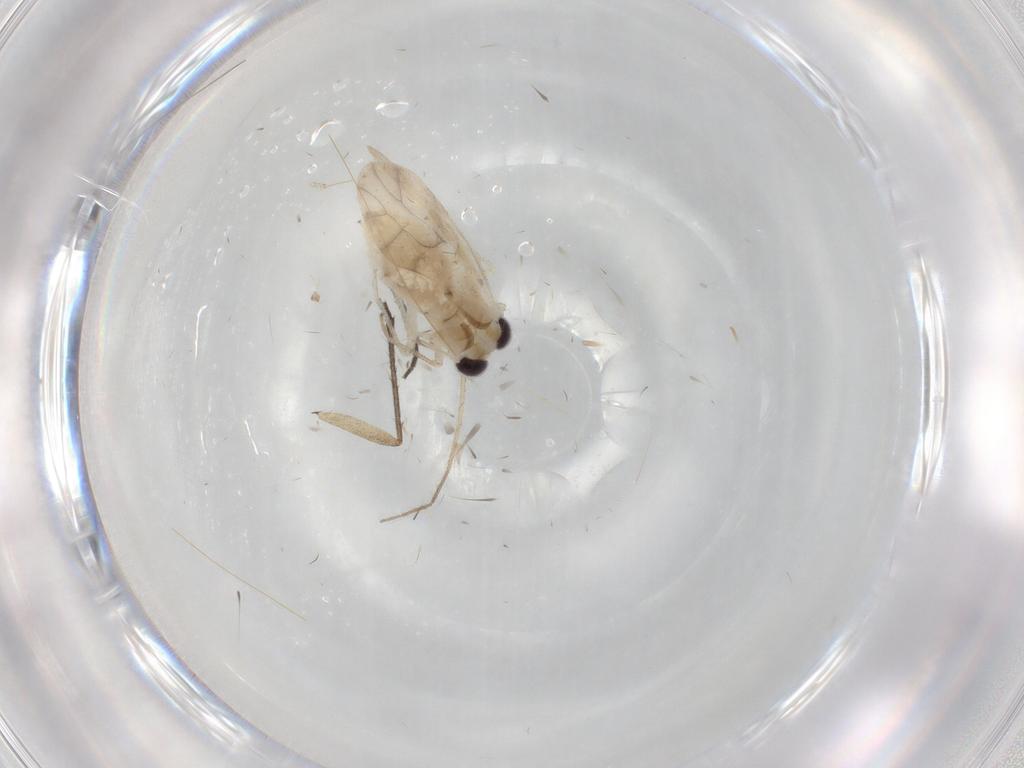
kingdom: Animalia
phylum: Arthropoda
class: Insecta
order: Psocodea
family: Caeciliusidae
